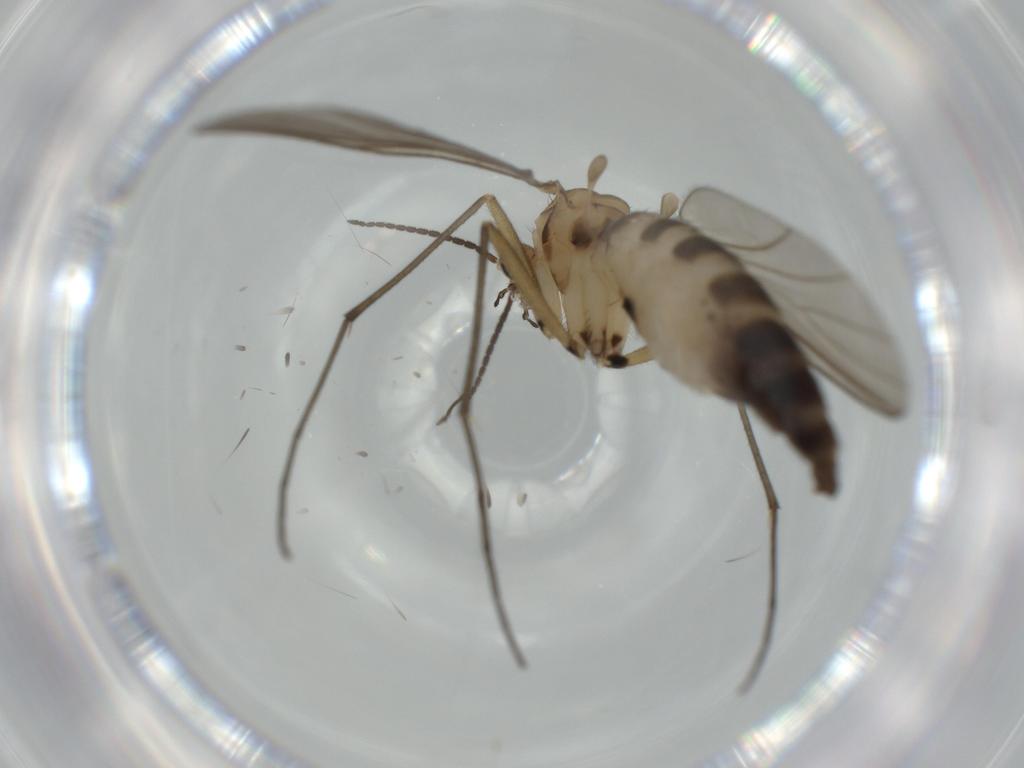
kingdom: Animalia
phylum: Arthropoda
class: Insecta
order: Diptera
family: Sciaridae
